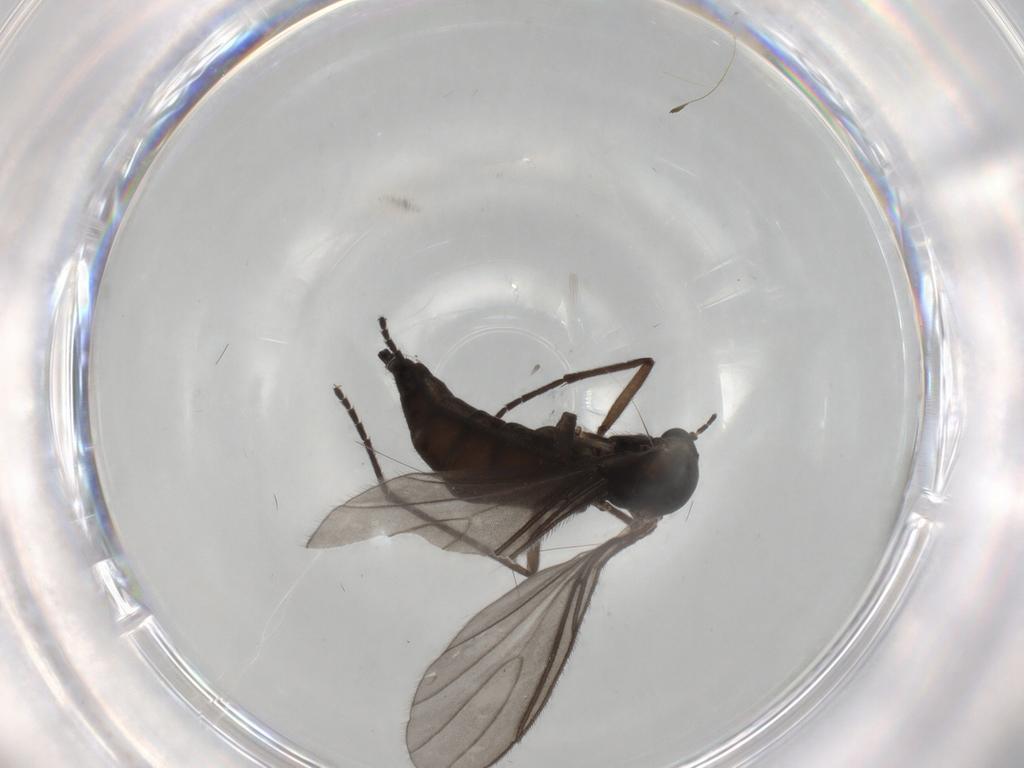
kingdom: Animalia
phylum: Arthropoda
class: Insecta
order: Diptera
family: Sciaridae
